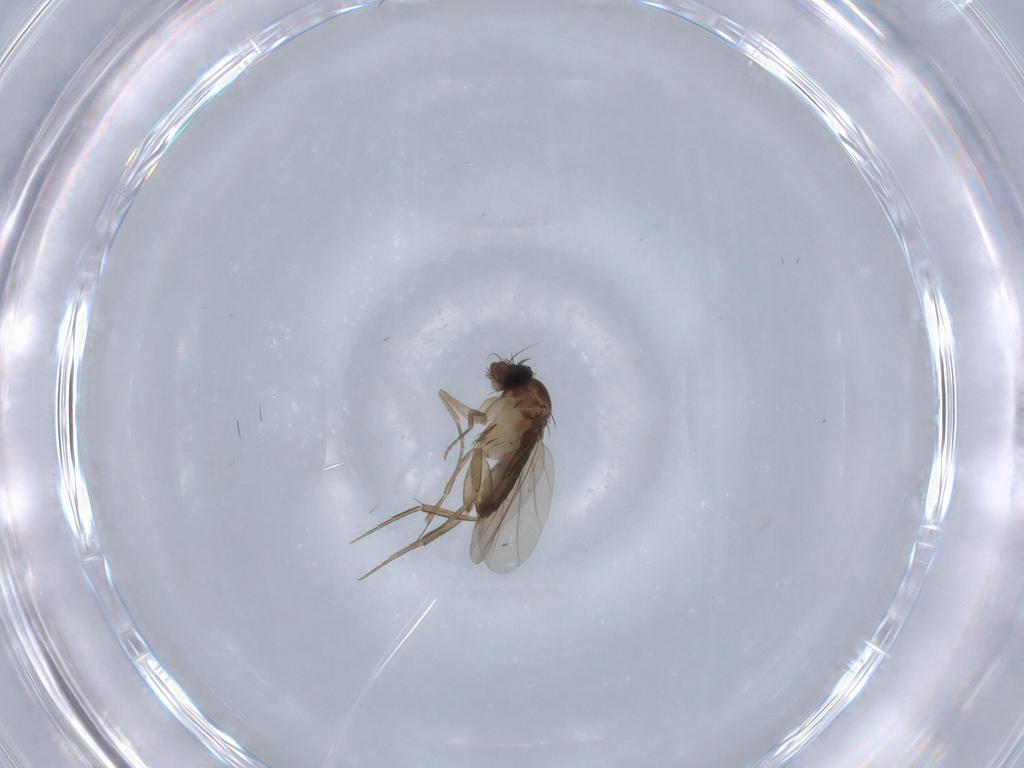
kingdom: Animalia
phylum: Arthropoda
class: Insecta
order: Diptera
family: Phoridae
